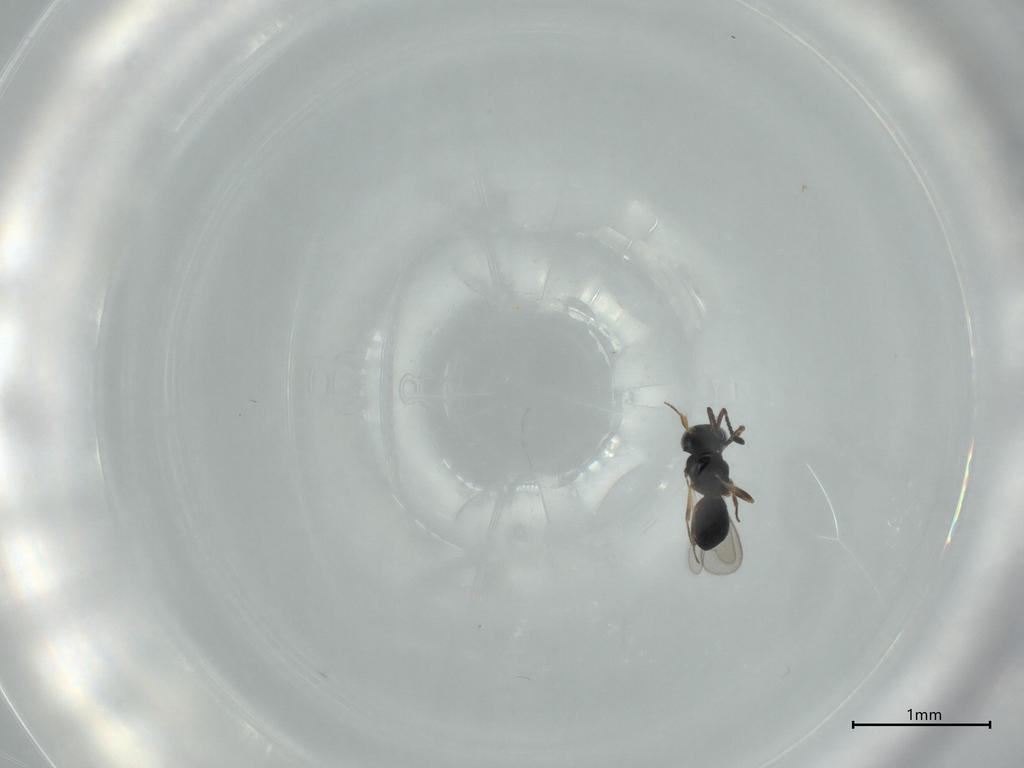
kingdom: Animalia
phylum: Arthropoda
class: Insecta
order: Hymenoptera
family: Scelionidae
